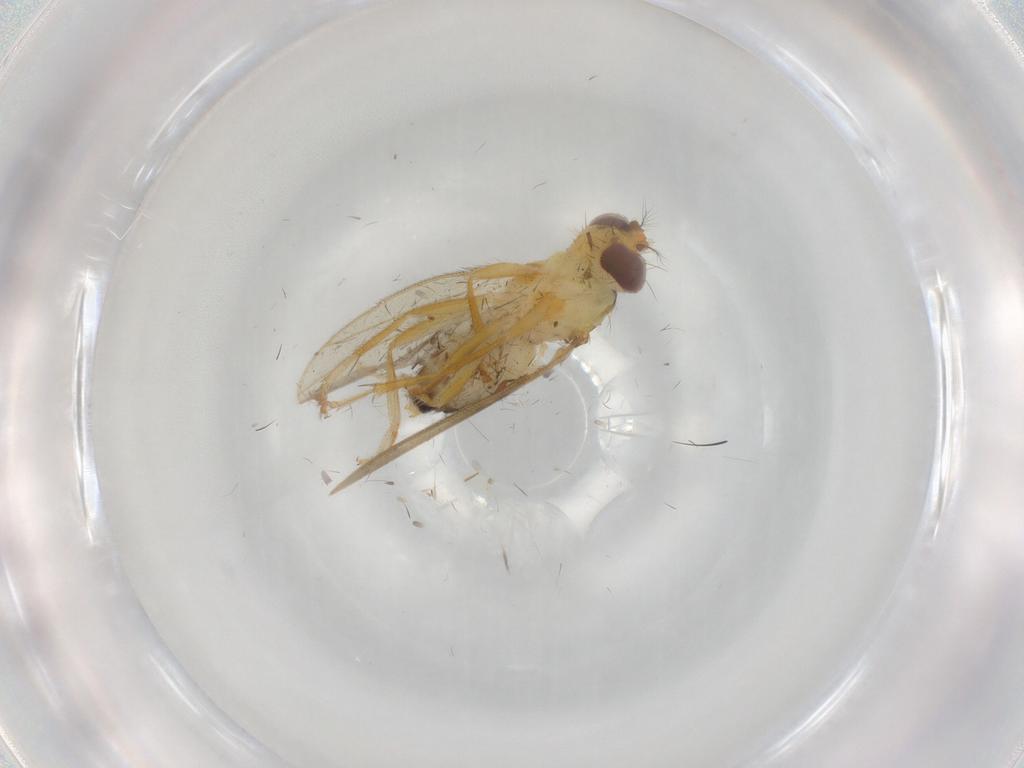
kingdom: Animalia
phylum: Arthropoda
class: Insecta
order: Diptera
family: Periscelididae
